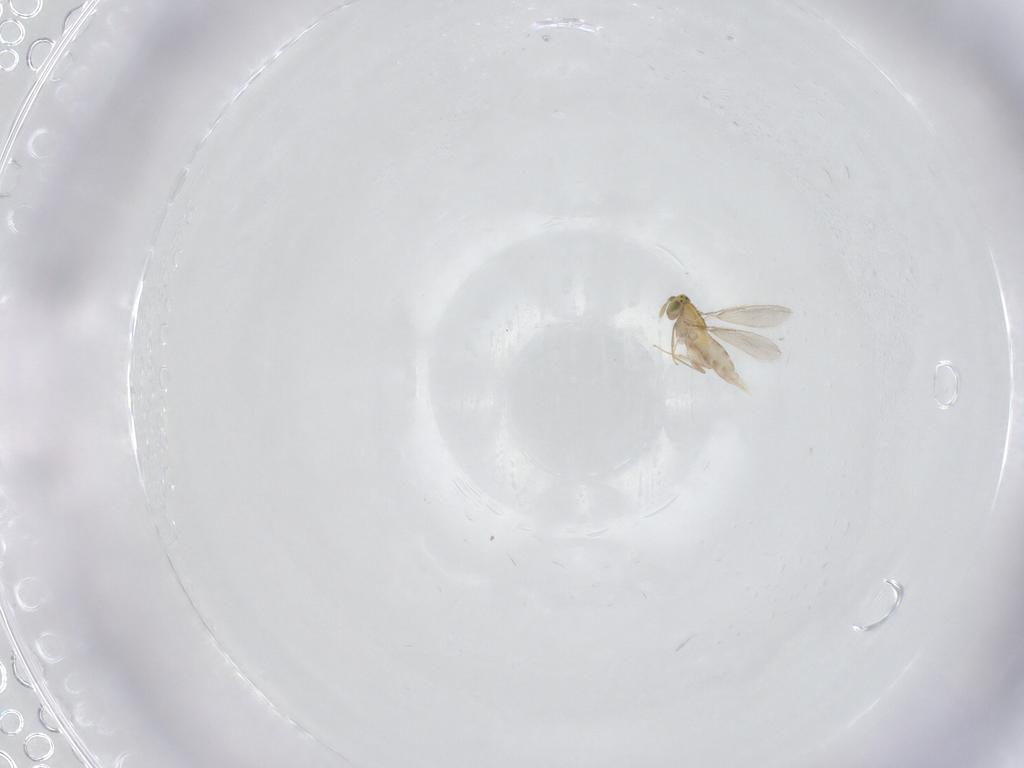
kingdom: Animalia
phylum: Arthropoda
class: Insecta
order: Hymenoptera
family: Aphelinidae
